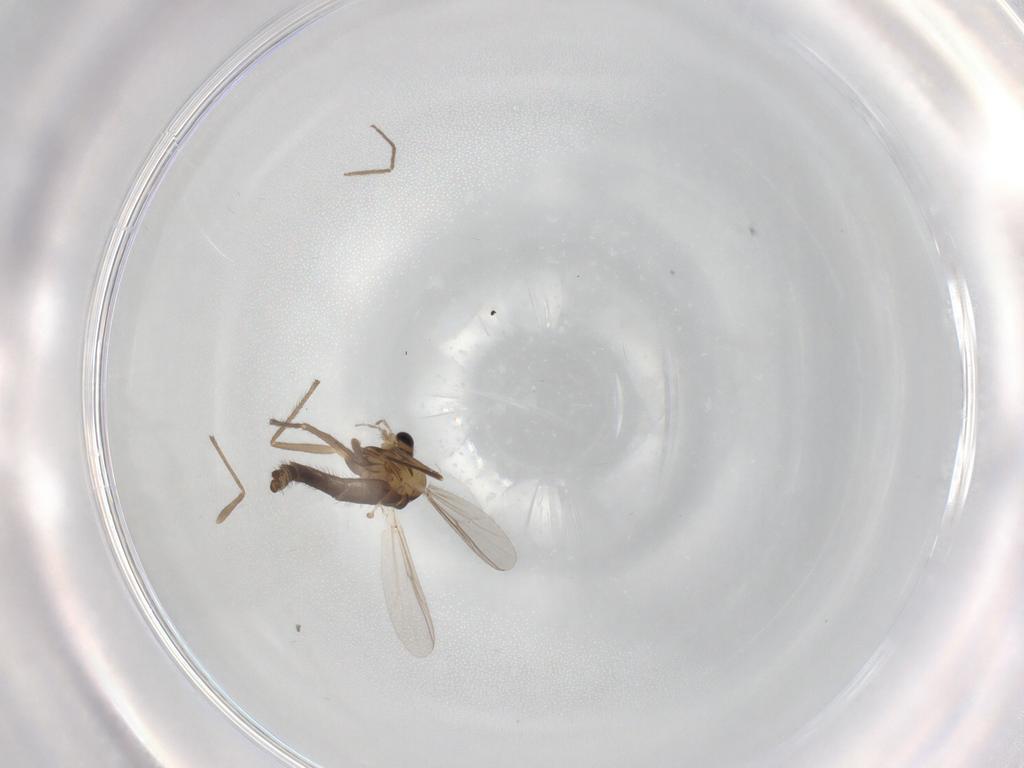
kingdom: Animalia
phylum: Arthropoda
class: Insecta
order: Diptera
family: Chironomidae
